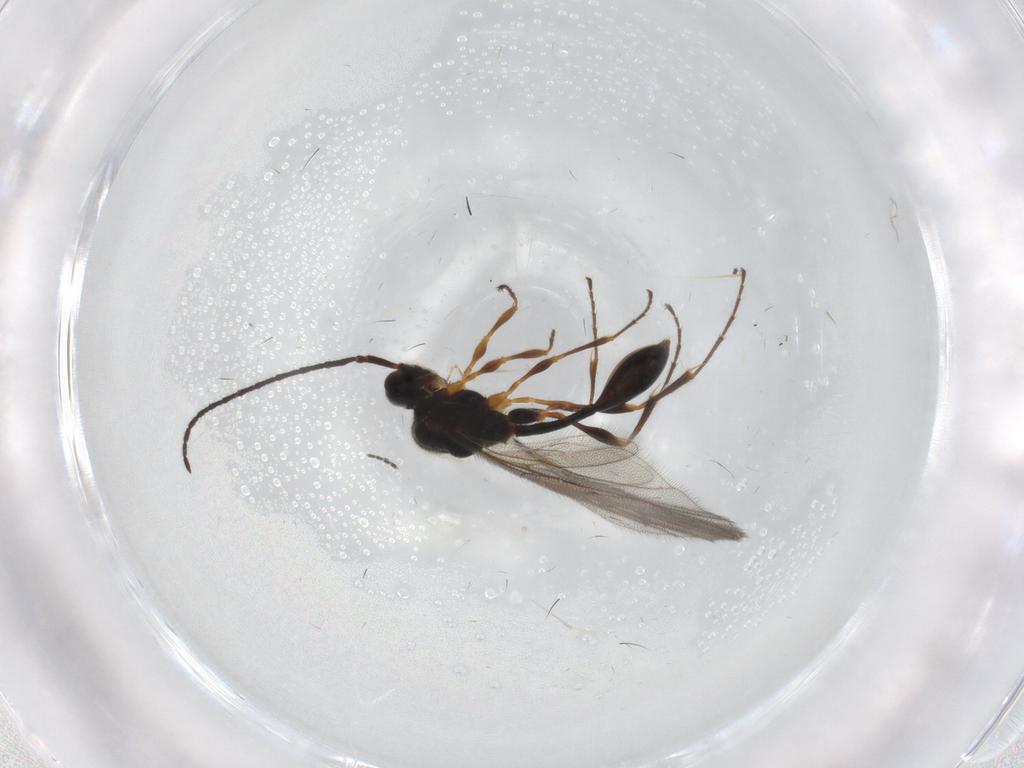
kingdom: Animalia
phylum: Arthropoda
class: Insecta
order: Hymenoptera
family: Diapriidae
